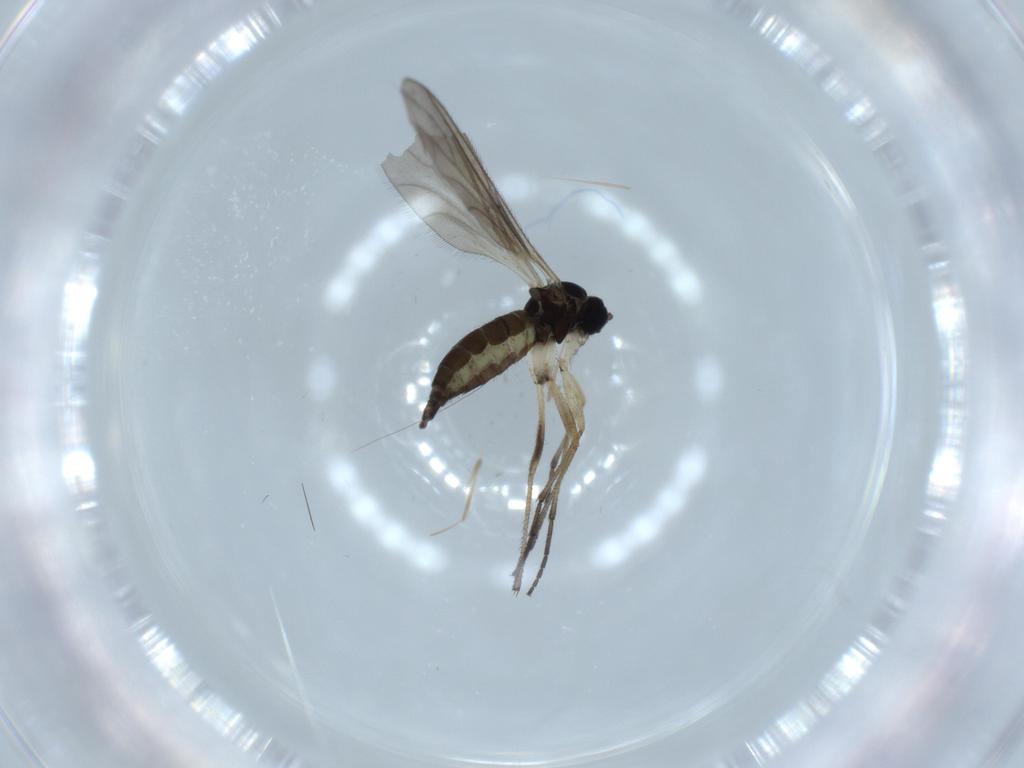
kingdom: Animalia
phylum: Arthropoda
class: Insecta
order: Diptera
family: Sciaridae
